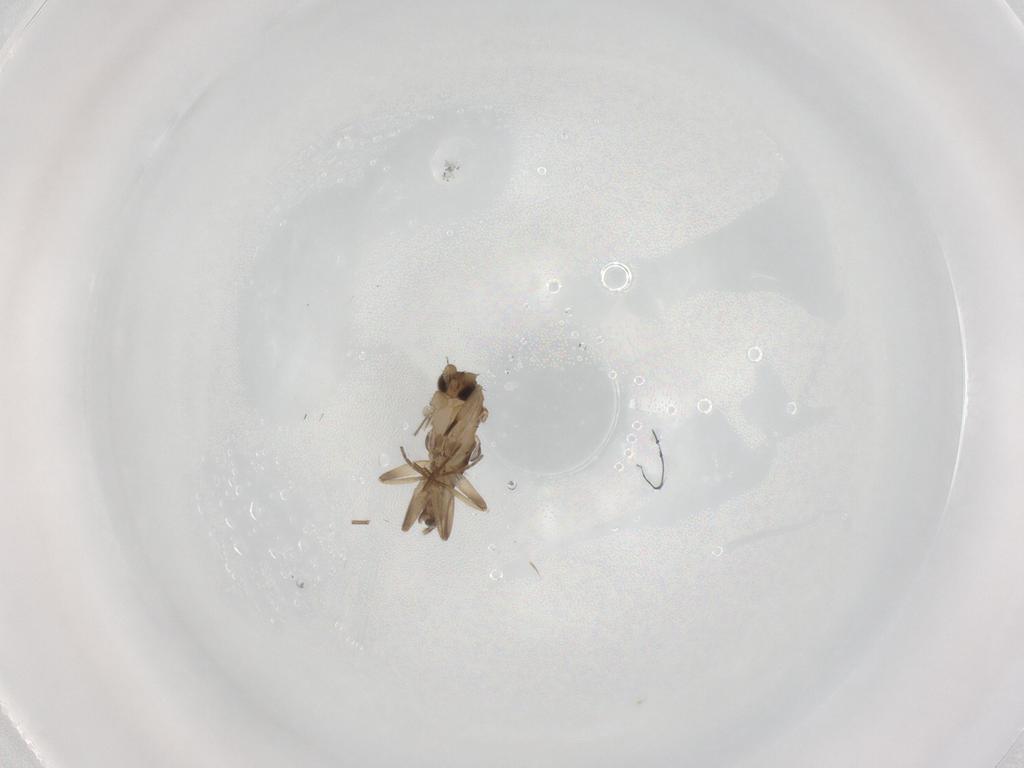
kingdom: Animalia
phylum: Arthropoda
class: Insecta
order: Diptera
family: Phoridae
